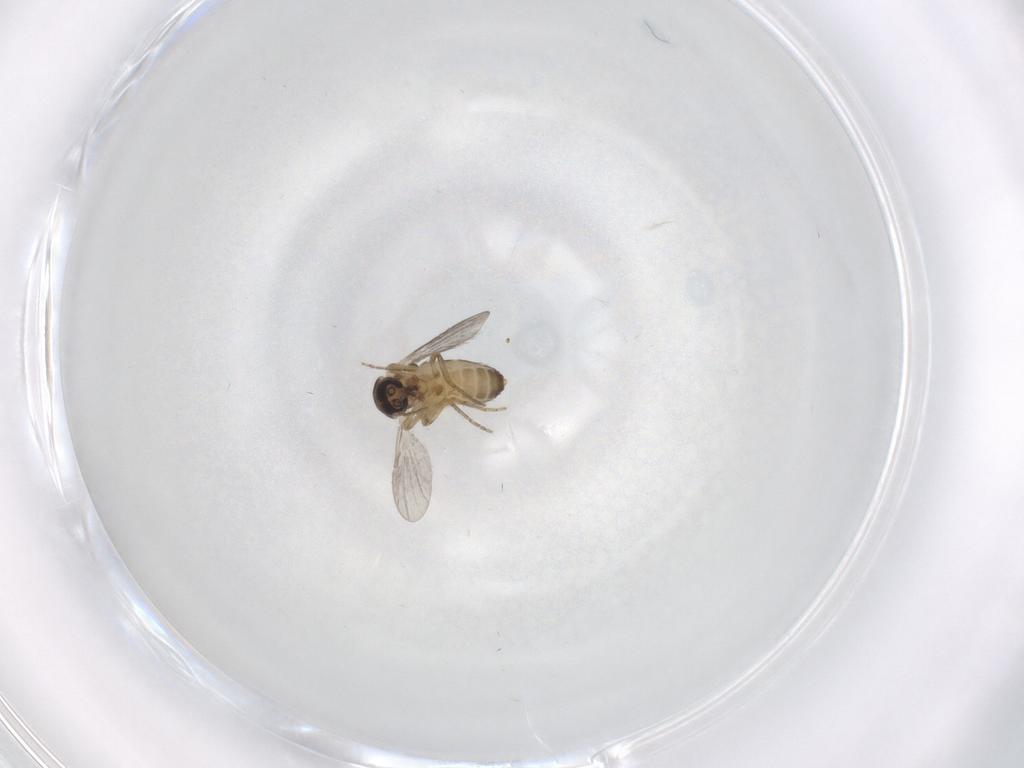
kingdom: Animalia
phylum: Arthropoda
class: Insecta
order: Diptera
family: Ceratopogonidae
